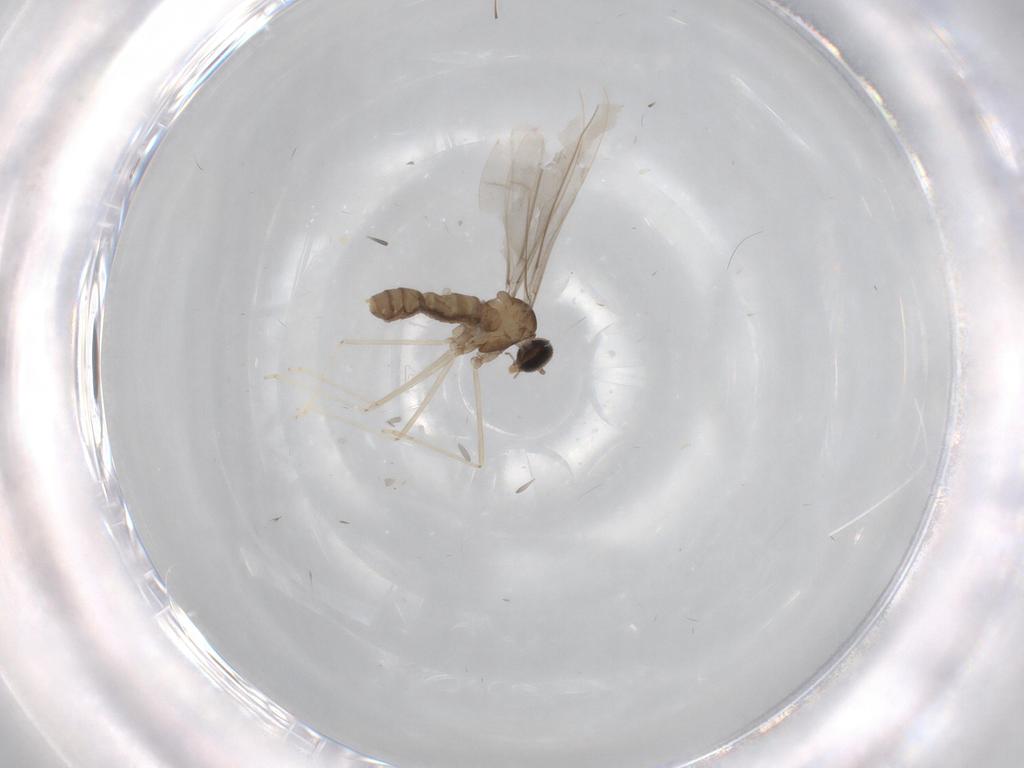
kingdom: Animalia
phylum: Arthropoda
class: Insecta
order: Diptera
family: Cecidomyiidae
